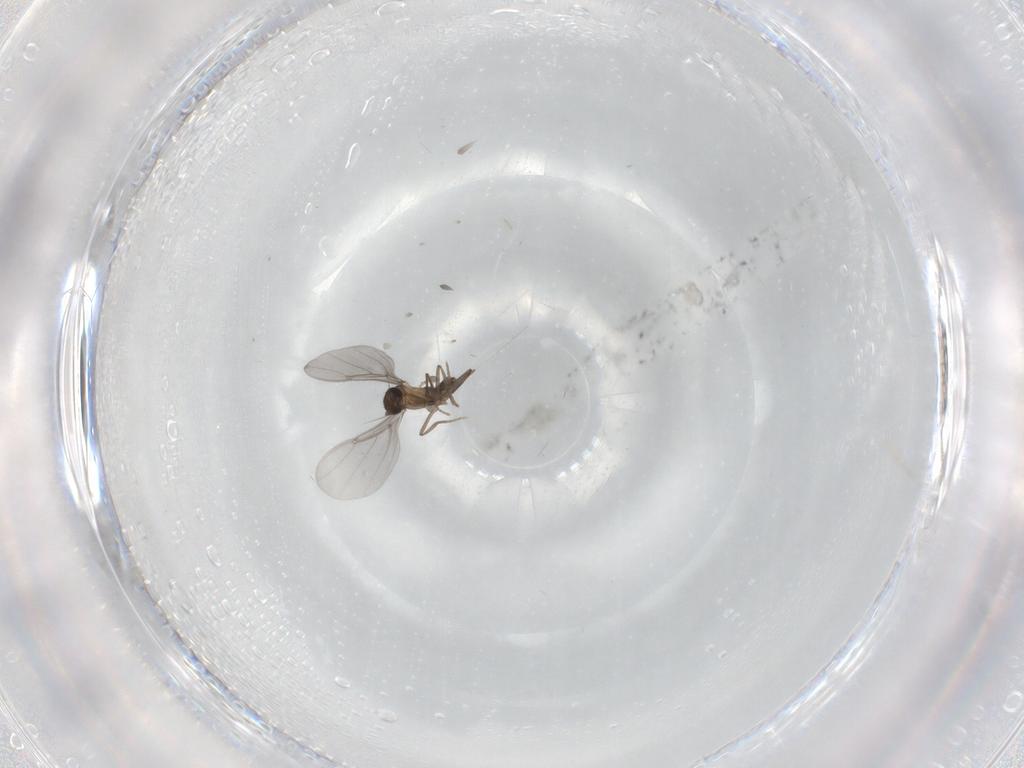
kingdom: Animalia
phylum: Arthropoda
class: Insecta
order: Diptera
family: Phoridae
